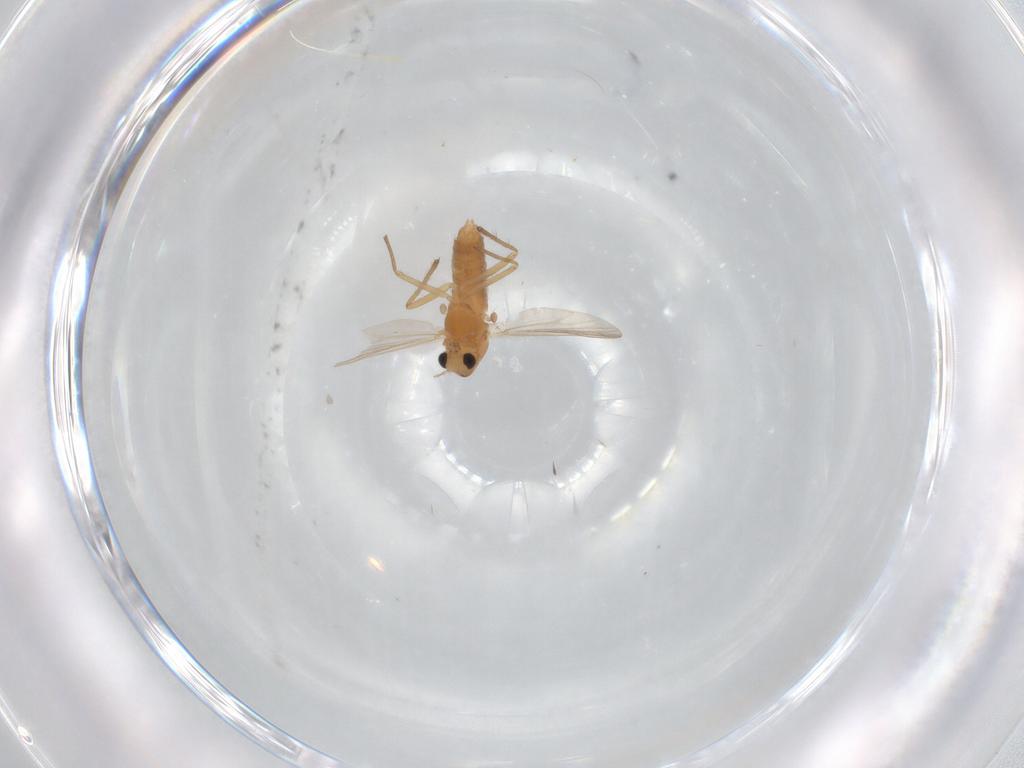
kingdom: Animalia
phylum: Arthropoda
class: Insecta
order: Diptera
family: Chironomidae
